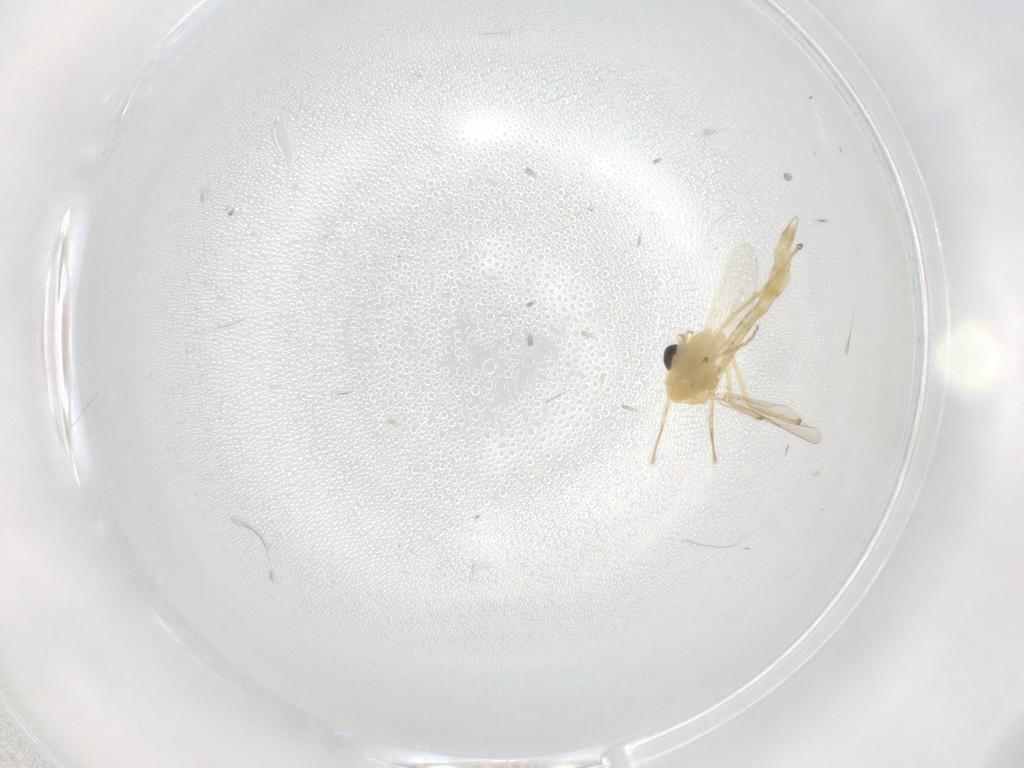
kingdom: Animalia
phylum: Arthropoda
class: Insecta
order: Diptera
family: Chironomidae
